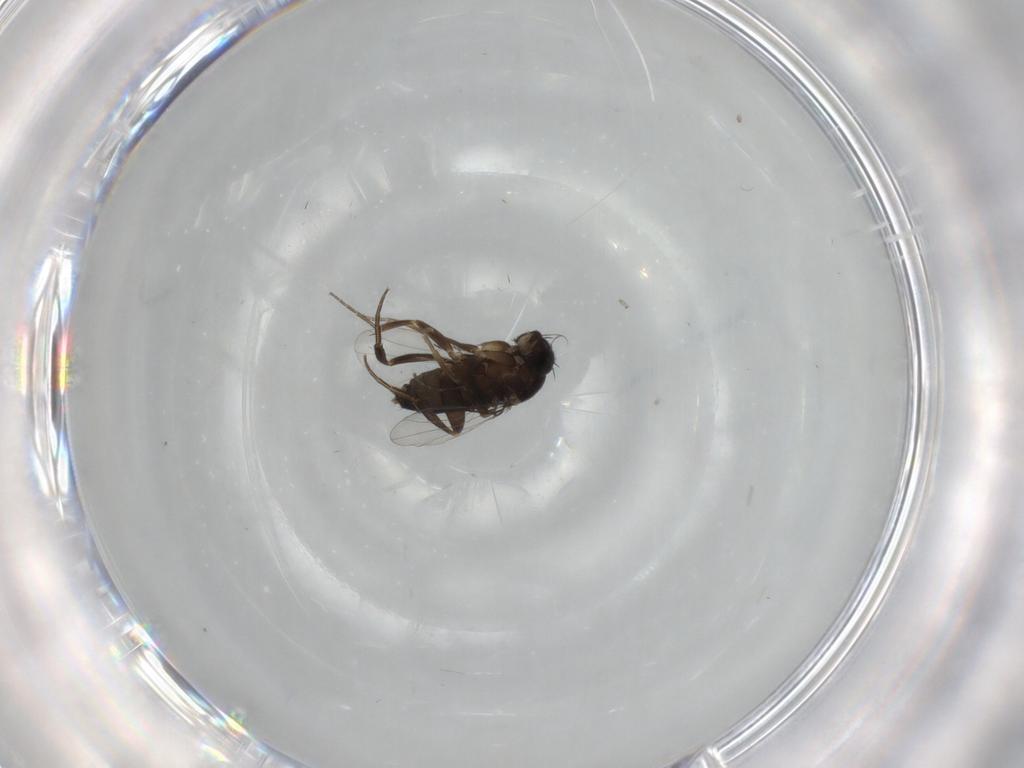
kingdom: Animalia
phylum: Arthropoda
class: Insecta
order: Diptera
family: Phoridae
